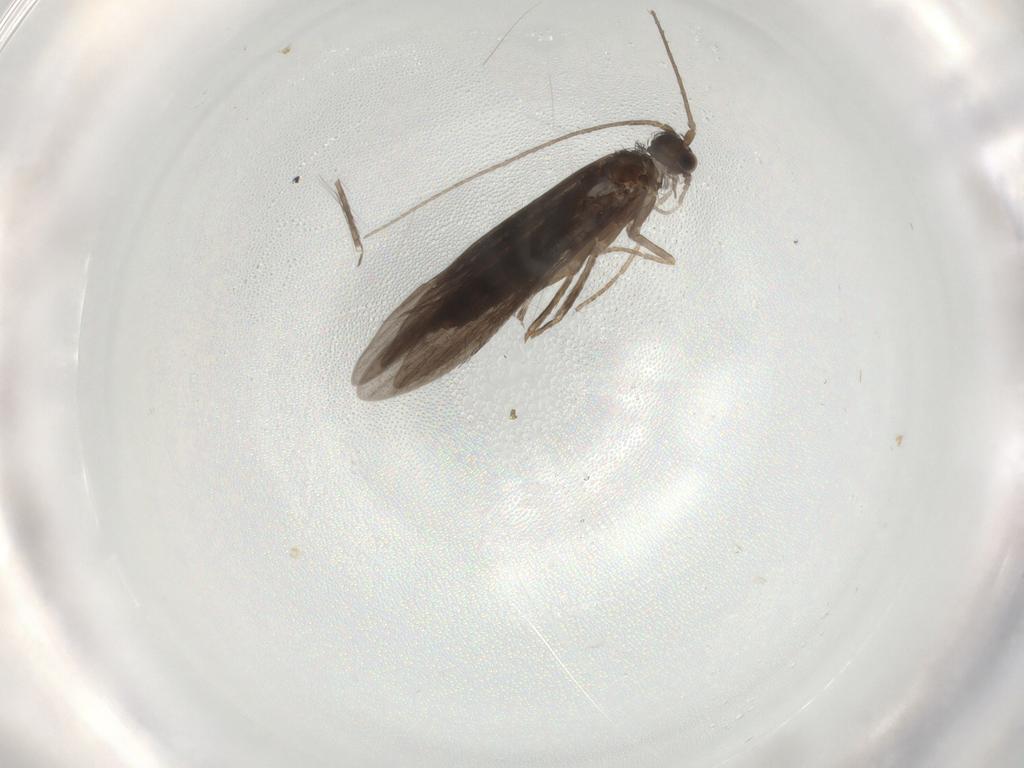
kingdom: Animalia
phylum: Arthropoda
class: Insecta
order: Trichoptera
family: Xiphocentronidae
